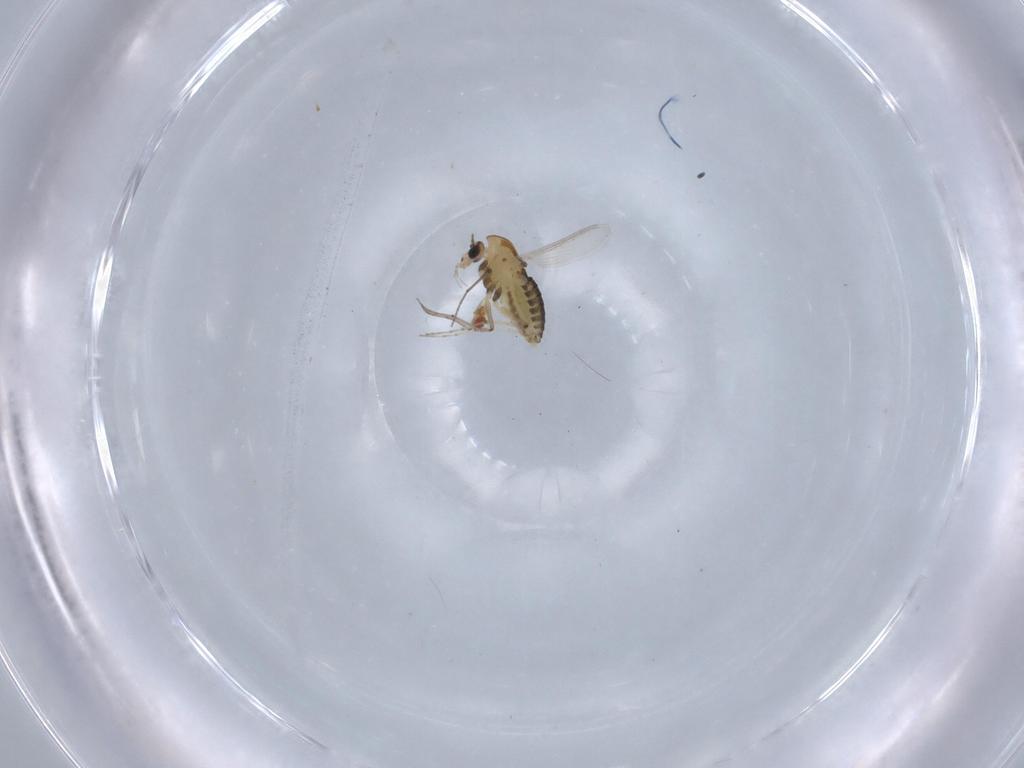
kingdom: Animalia
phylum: Arthropoda
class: Insecta
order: Diptera
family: Chironomidae
